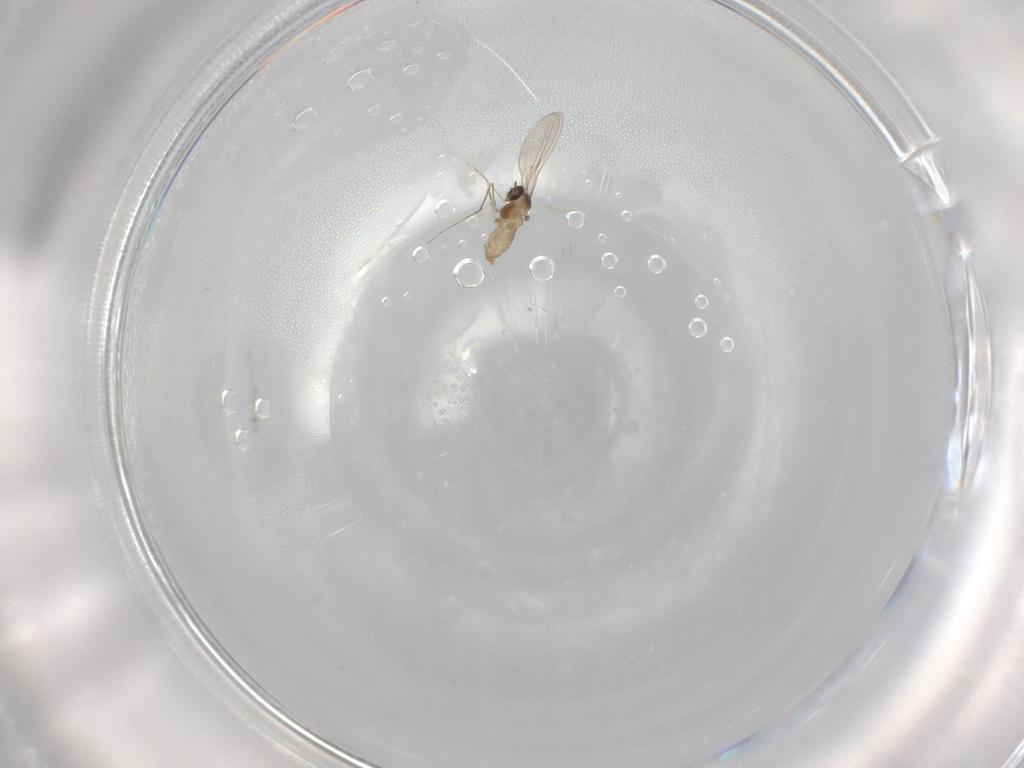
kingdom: Animalia
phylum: Arthropoda
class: Insecta
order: Diptera
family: Cecidomyiidae
